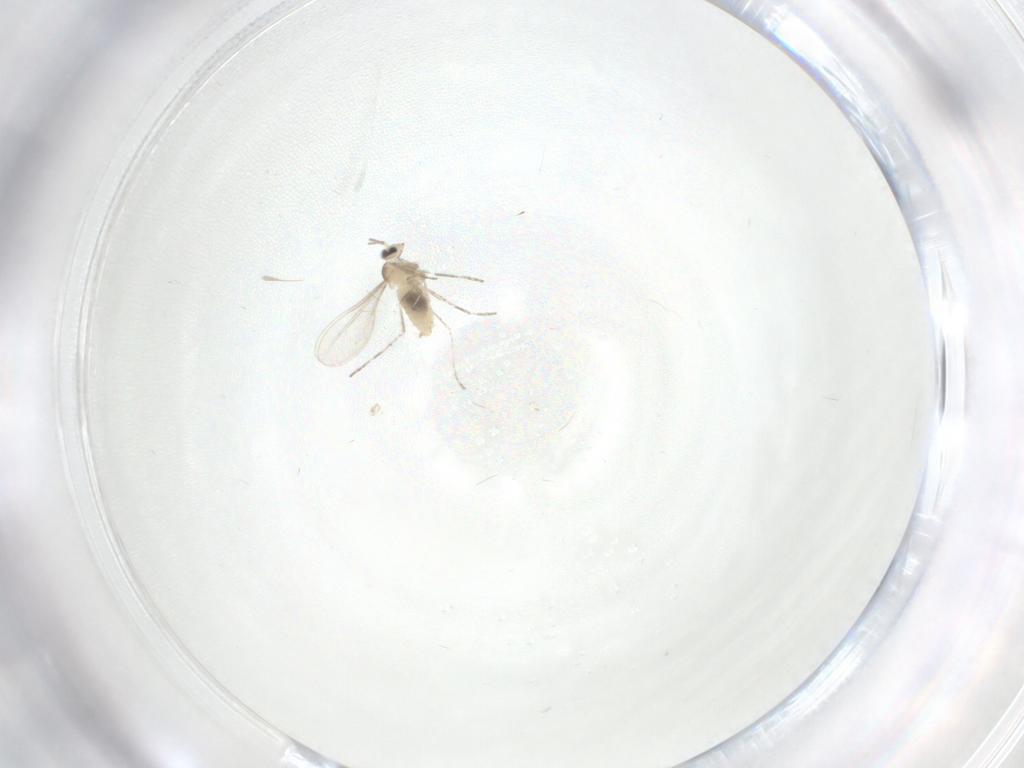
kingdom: Animalia
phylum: Arthropoda
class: Insecta
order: Diptera
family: Cecidomyiidae
